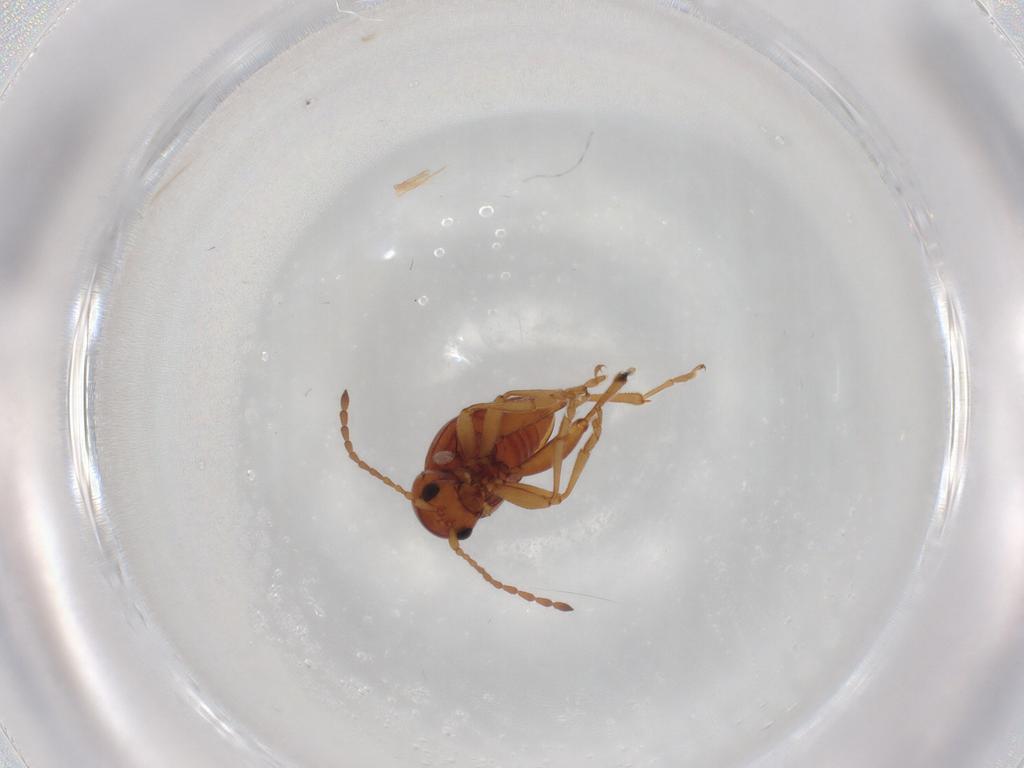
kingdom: Animalia
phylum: Arthropoda
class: Insecta
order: Coleoptera
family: Chrysomelidae
